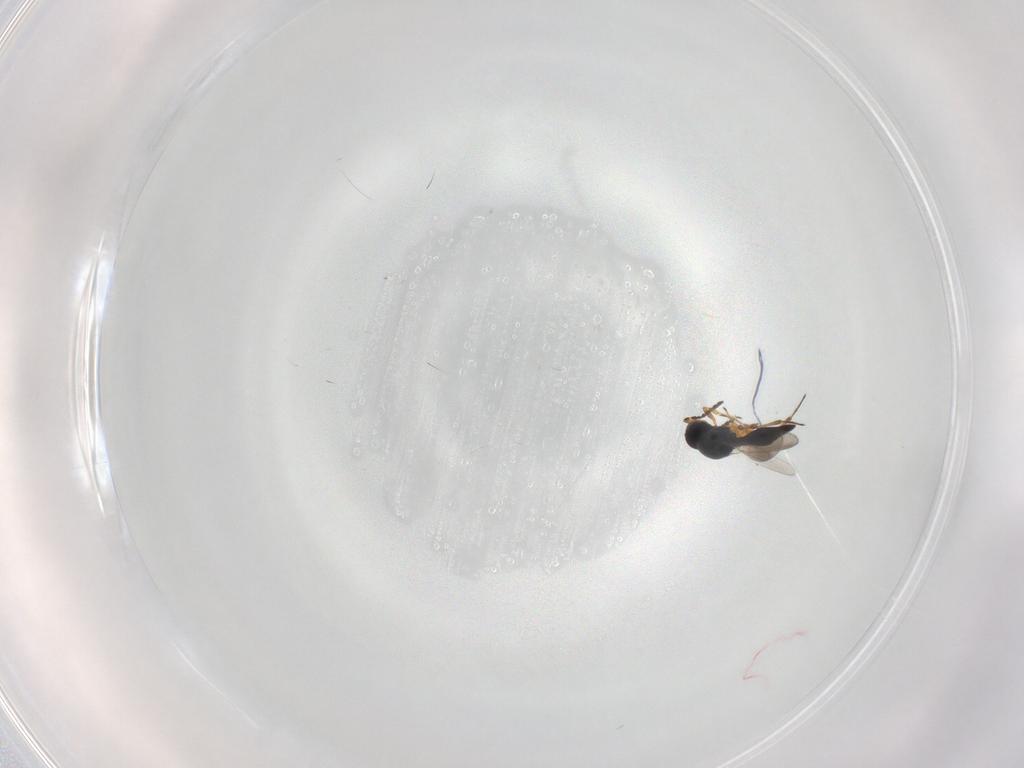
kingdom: Animalia
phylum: Arthropoda
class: Insecta
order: Hymenoptera
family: Platygastridae
